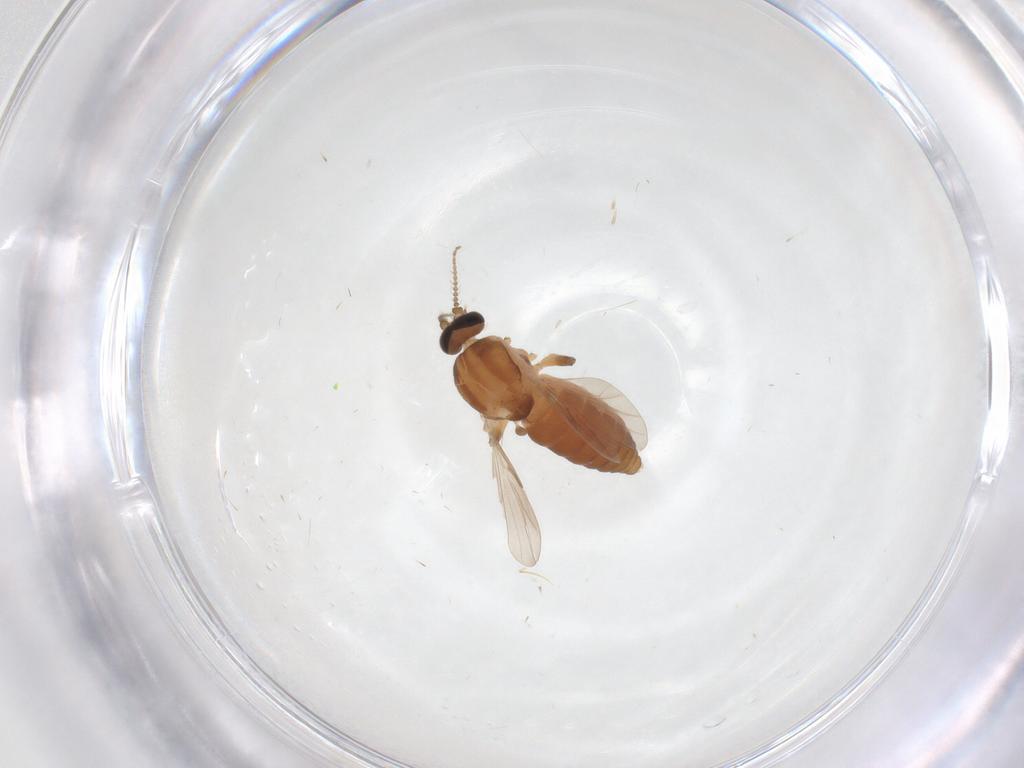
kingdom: Animalia
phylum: Arthropoda
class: Insecta
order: Diptera
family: Ceratopogonidae
